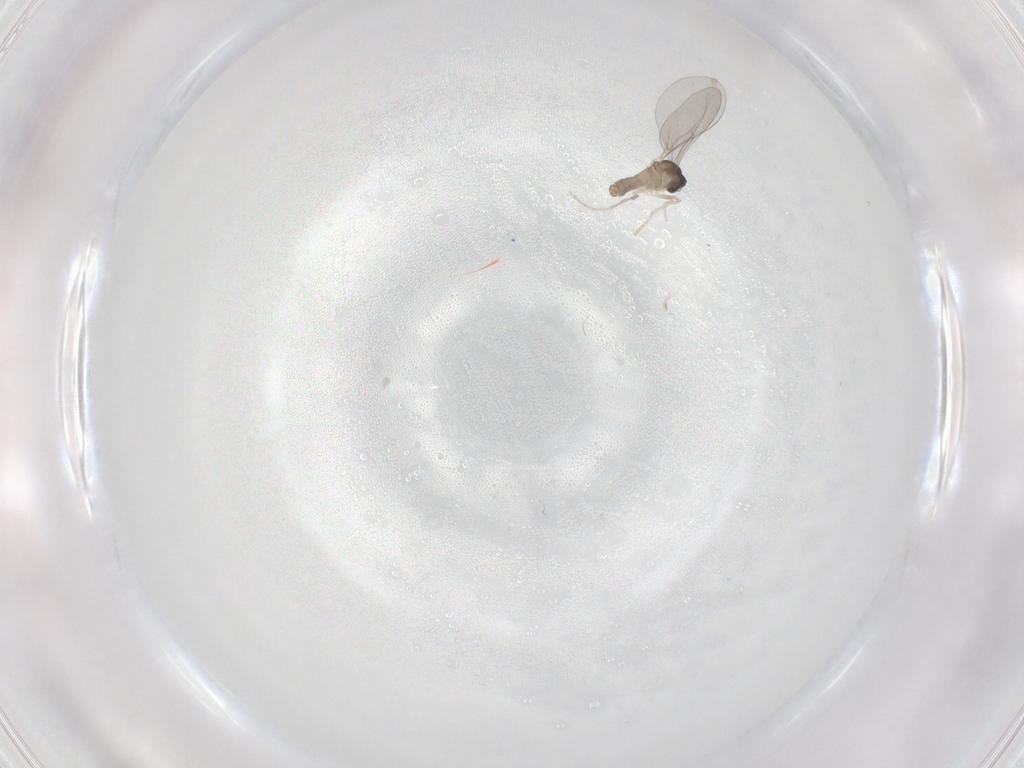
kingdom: Animalia
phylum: Arthropoda
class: Insecta
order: Diptera
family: Cecidomyiidae
